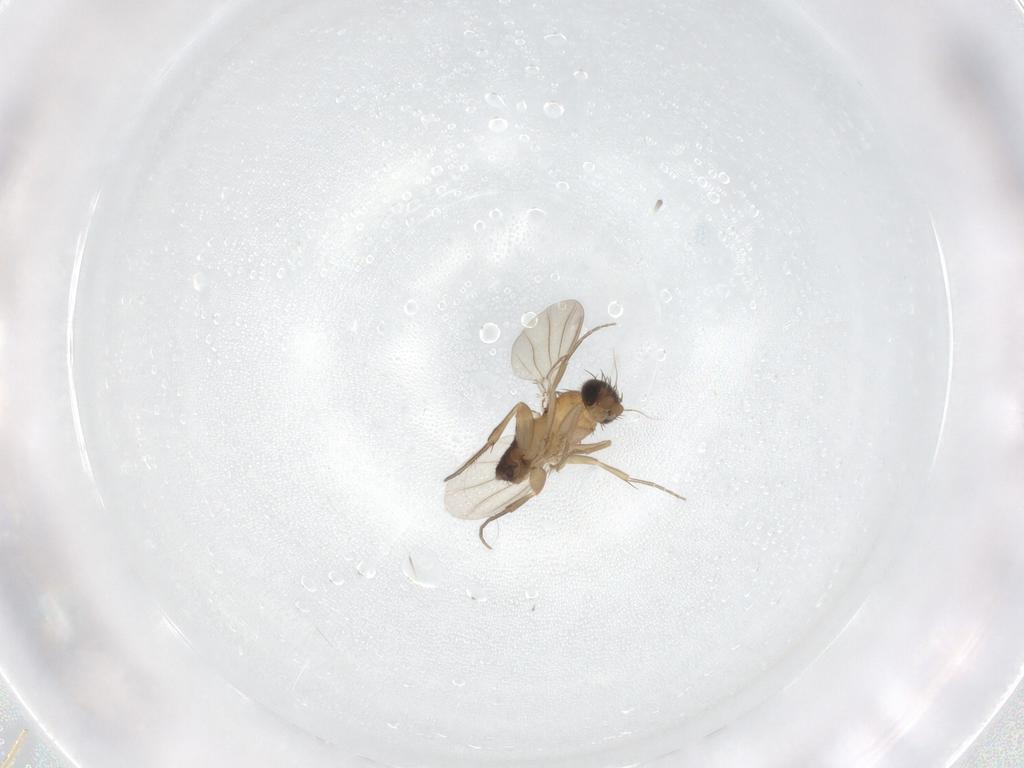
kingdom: Animalia
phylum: Arthropoda
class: Insecta
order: Diptera
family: Phoridae
